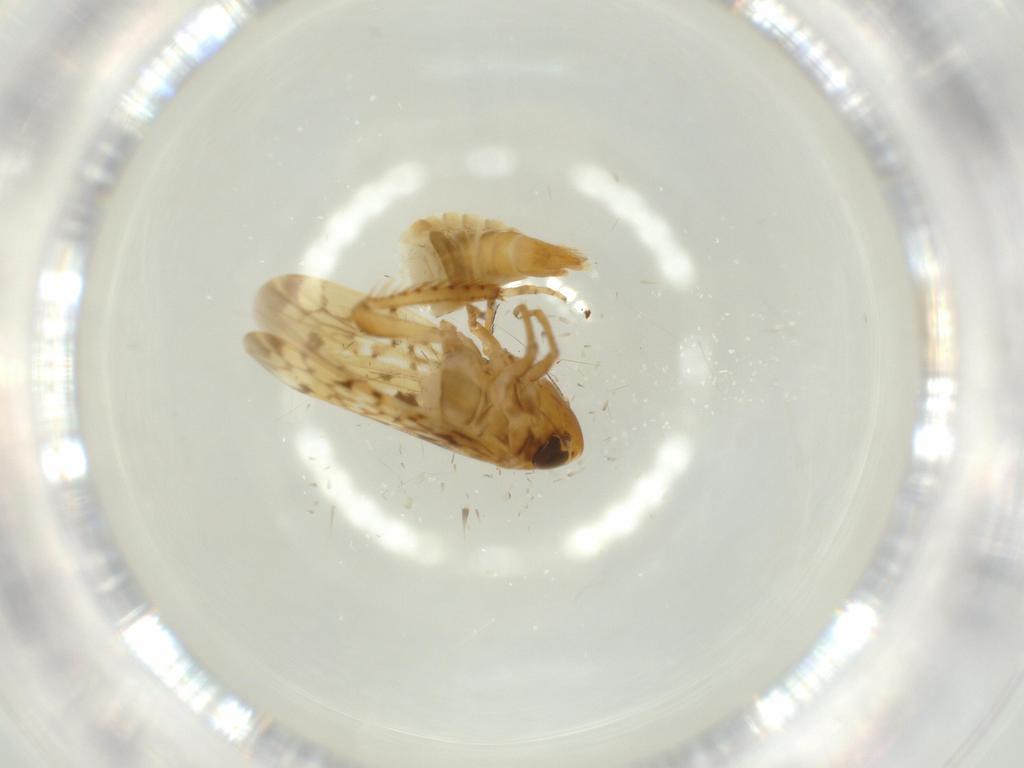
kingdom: Animalia
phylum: Arthropoda
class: Insecta
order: Hemiptera
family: Cicadellidae
